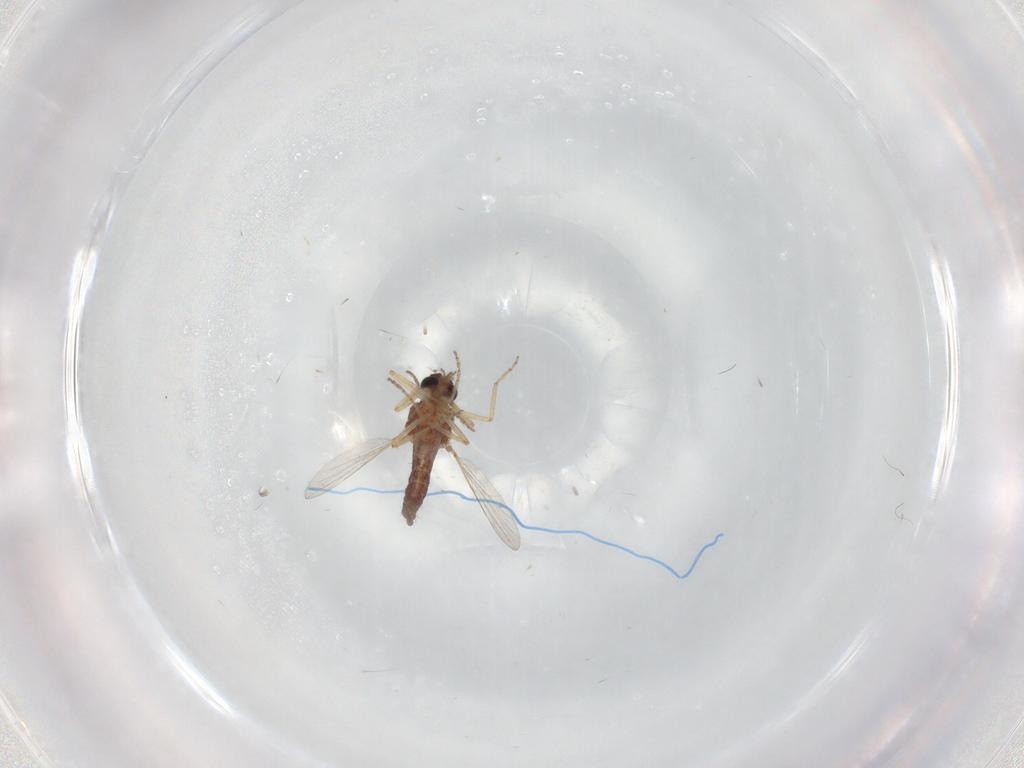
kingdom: Animalia
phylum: Arthropoda
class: Insecta
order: Diptera
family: Ceratopogonidae
